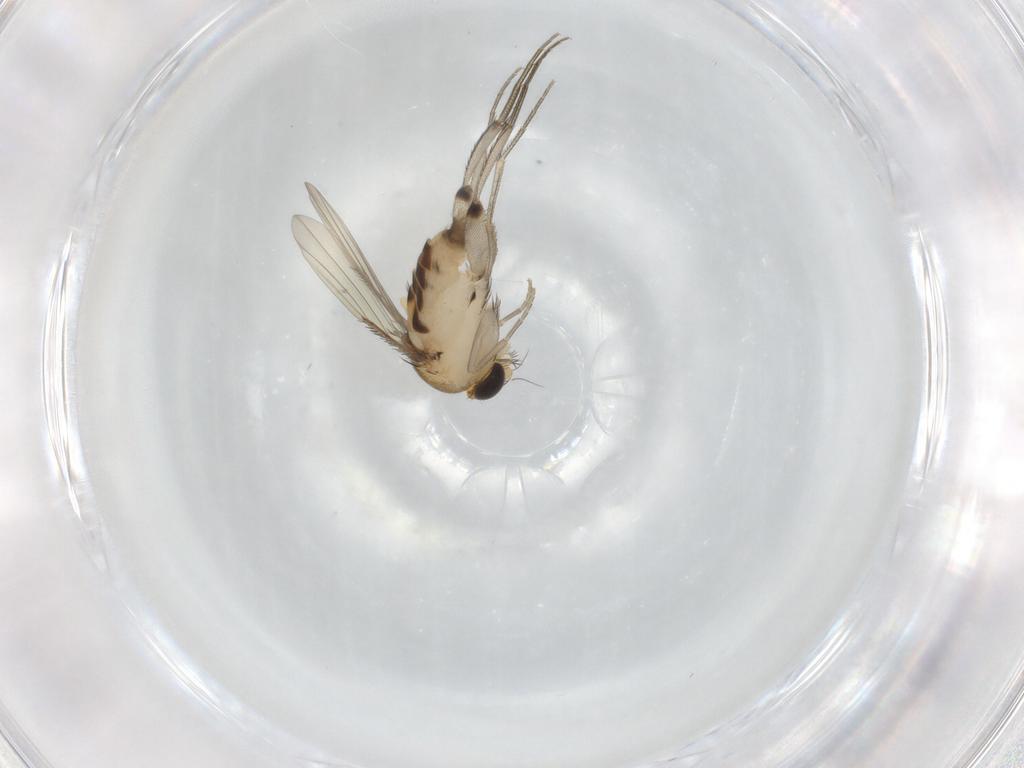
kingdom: Animalia
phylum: Arthropoda
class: Insecta
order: Diptera
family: Phoridae
